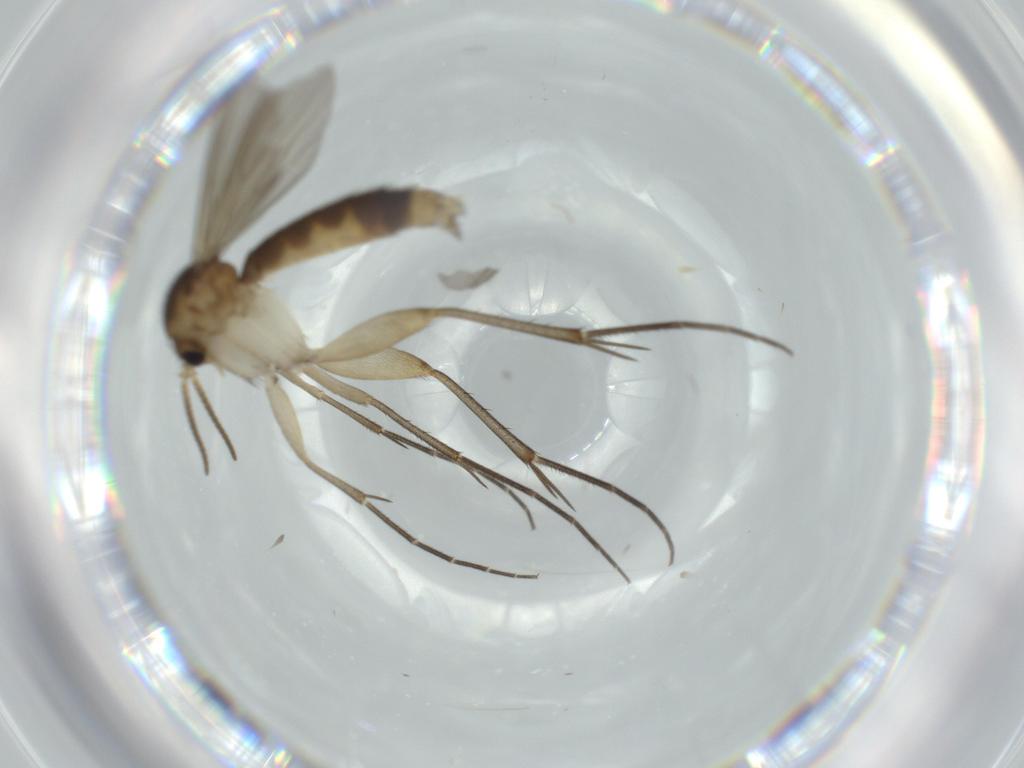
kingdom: Animalia
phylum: Arthropoda
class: Insecta
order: Diptera
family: Mycetophilidae
